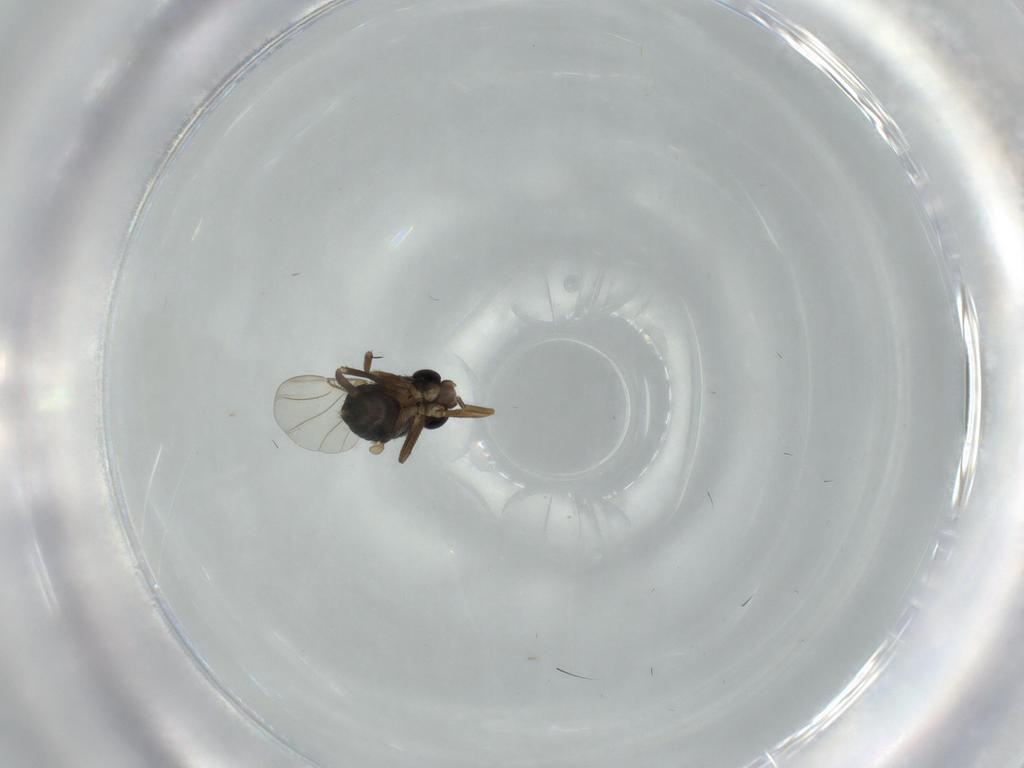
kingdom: Animalia
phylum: Arthropoda
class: Insecta
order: Diptera
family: Phoridae
